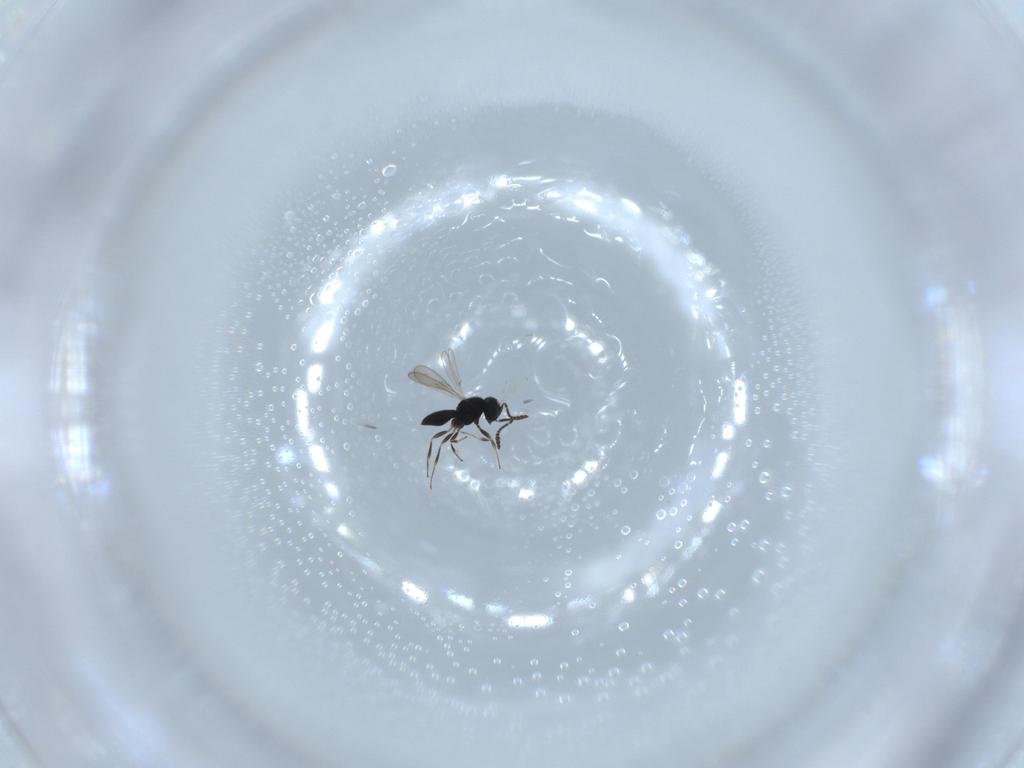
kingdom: Animalia
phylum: Arthropoda
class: Insecta
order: Hymenoptera
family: Scelionidae
